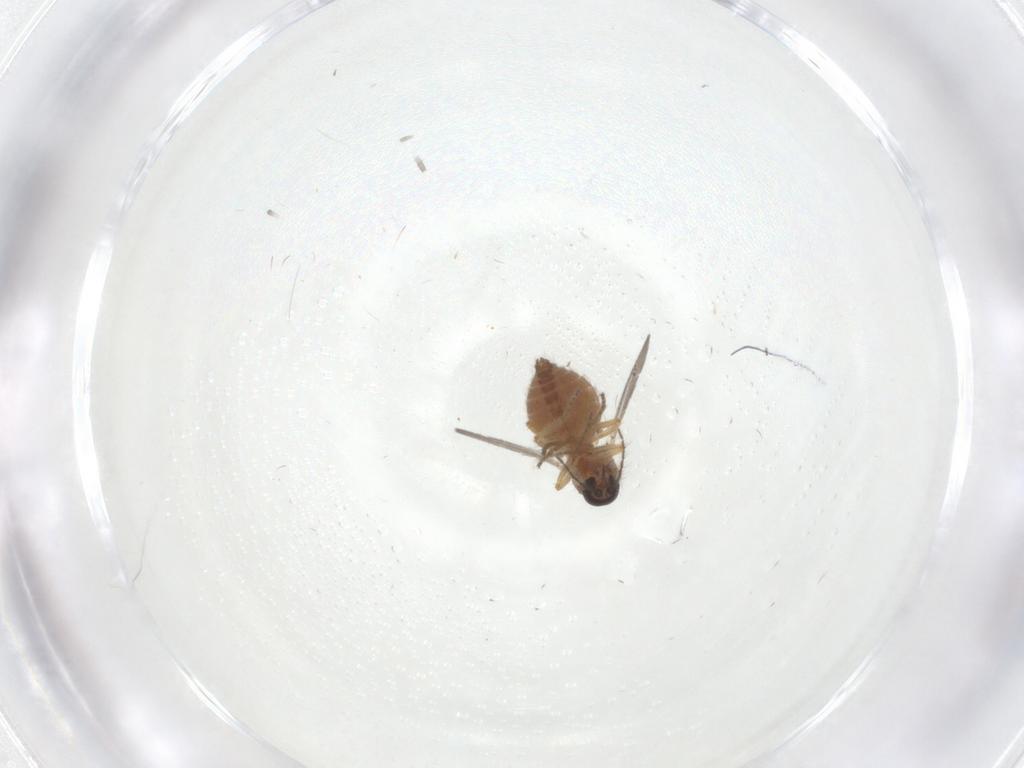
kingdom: Animalia
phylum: Arthropoda
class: Insecta
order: Diptera
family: Ceratopogonidae
